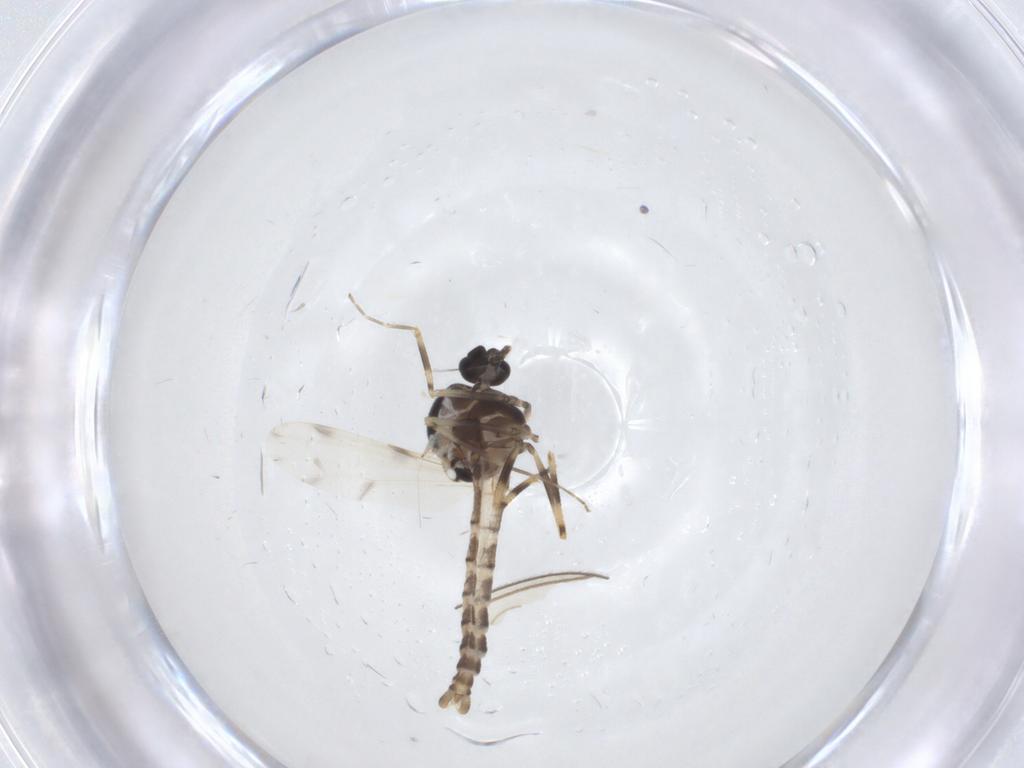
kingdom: Animalia
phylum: Arthropoda
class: Insecta
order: Diptera
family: Ceratopogonidae
